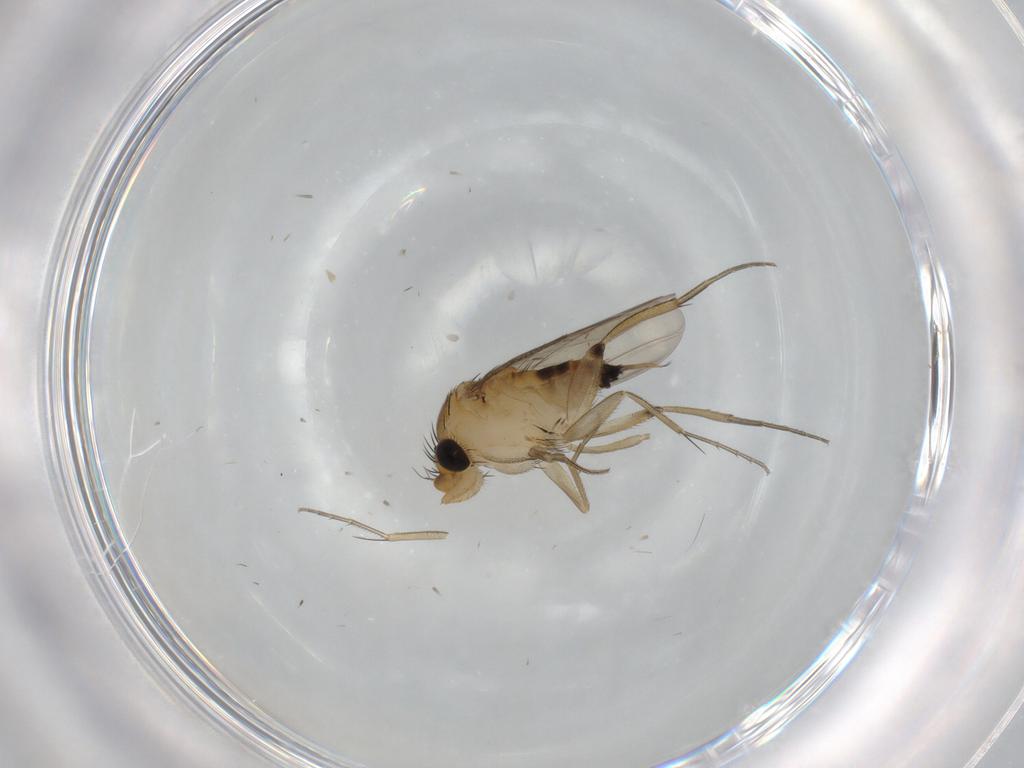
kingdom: Animalia
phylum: Arthropoda
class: Insecta
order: Diptera
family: Phoridae
